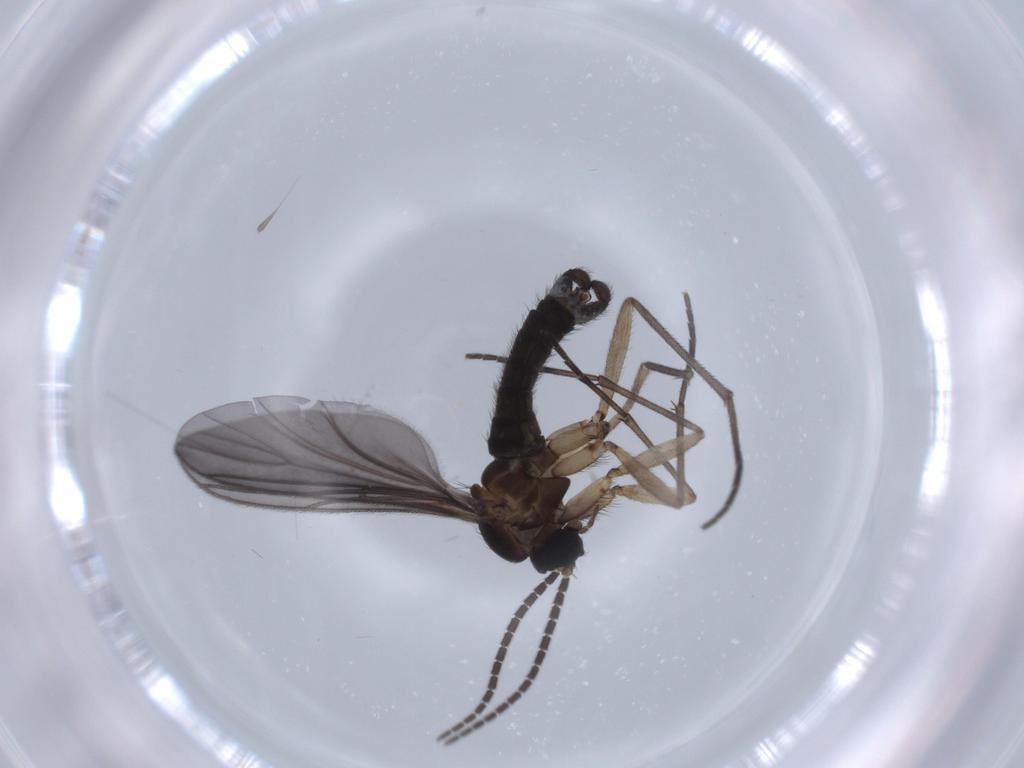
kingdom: Animalia
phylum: Arthropoda
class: Insecta
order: Diptera
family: Sciaridae
